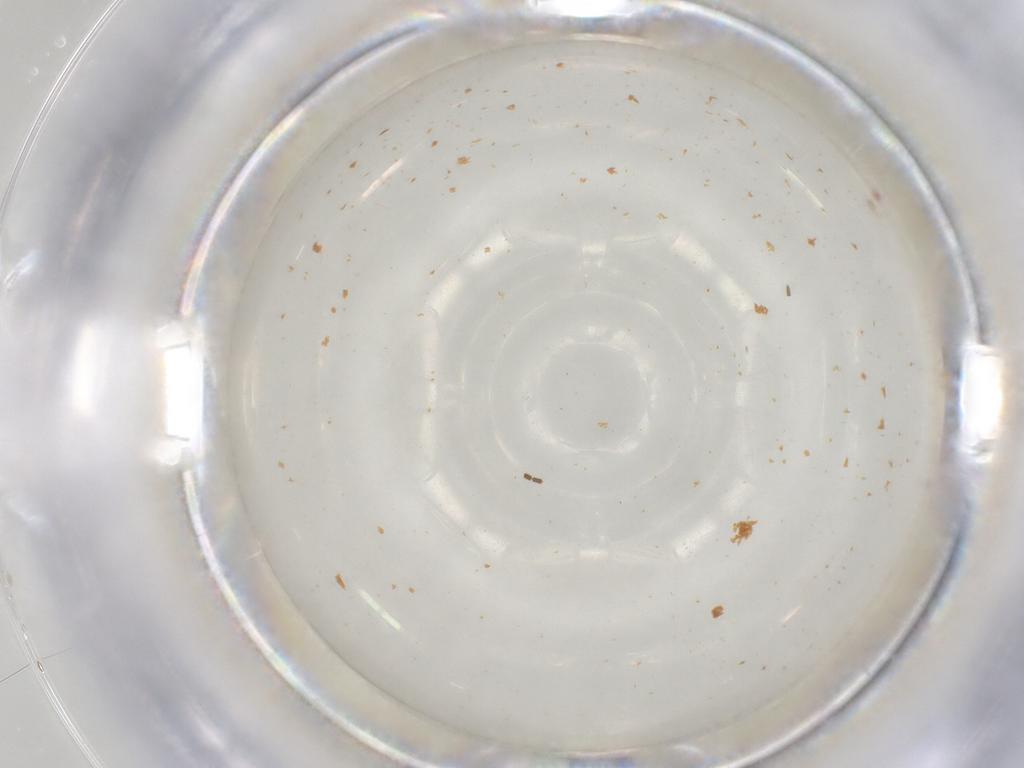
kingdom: Animalia
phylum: Arthropoda
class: Insecta
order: Diptera
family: Sciaridae
